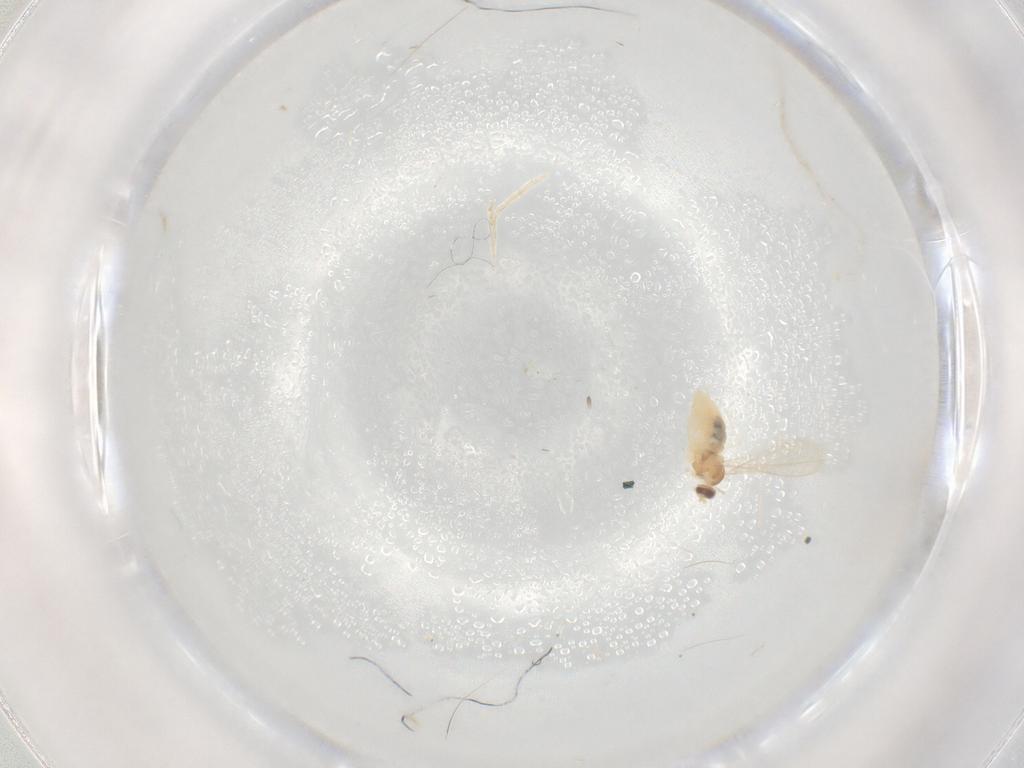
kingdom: Animalia
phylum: Arthropoda
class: Insecta
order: Diptera
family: Cecidomyiidae
